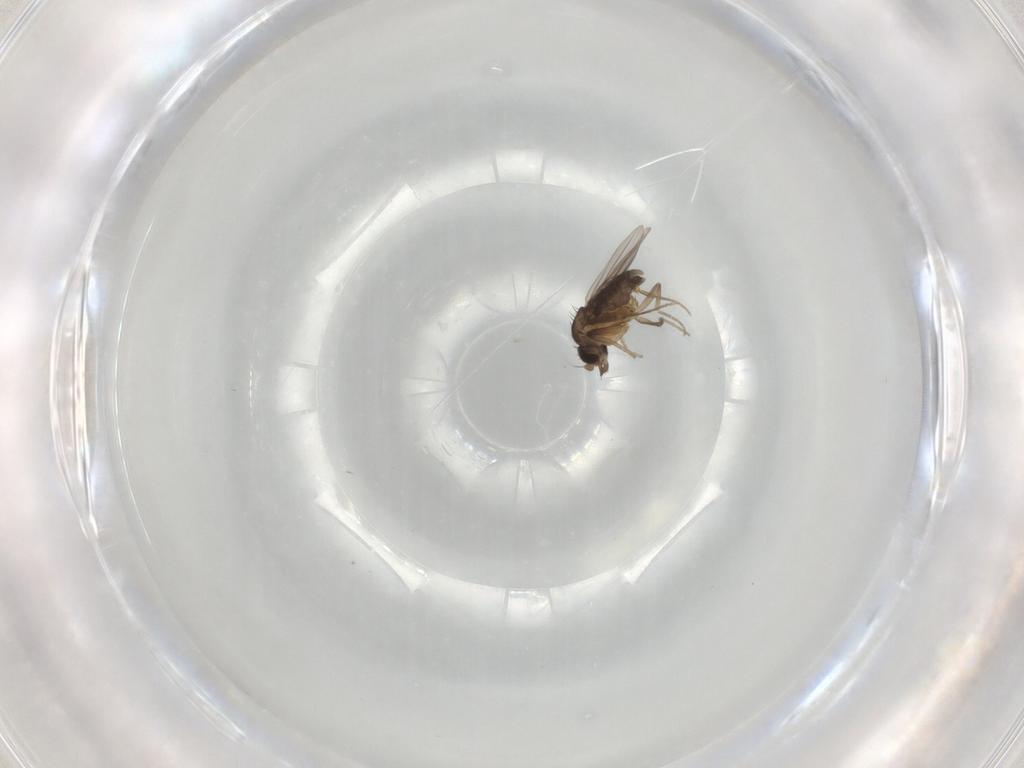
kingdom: Animalia
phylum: Arthropoda
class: Insecta
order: Diptera
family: Phoridae
